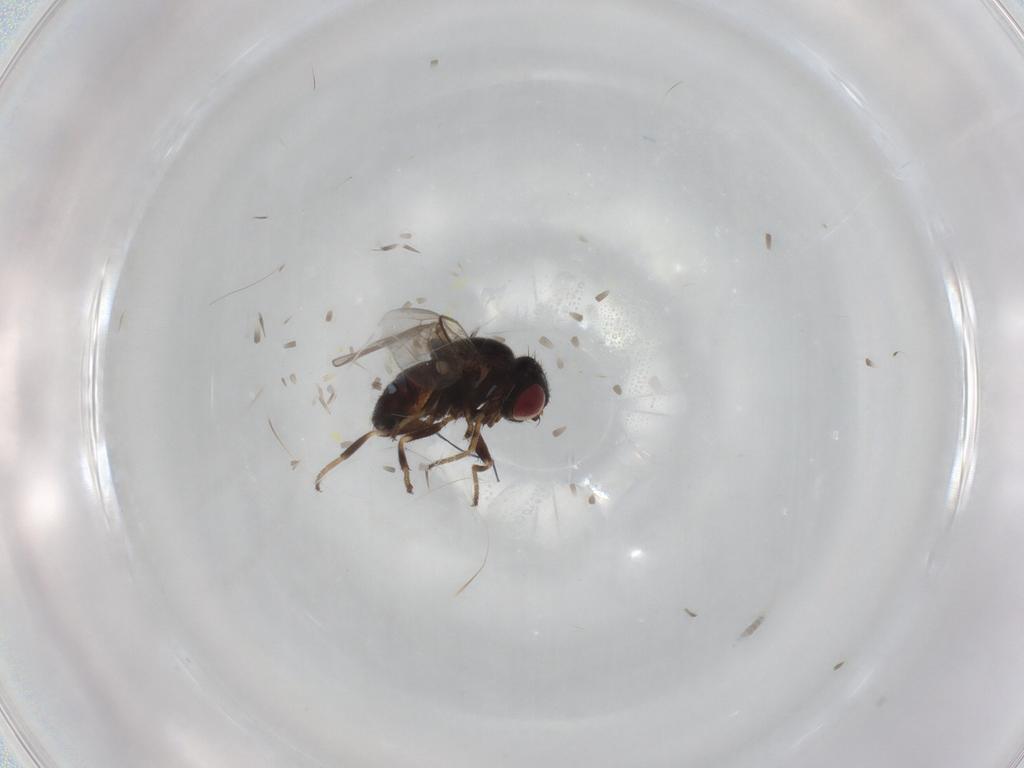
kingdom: Animalia
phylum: Arthropoda
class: Insecta
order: Diptera
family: Chloropidae
